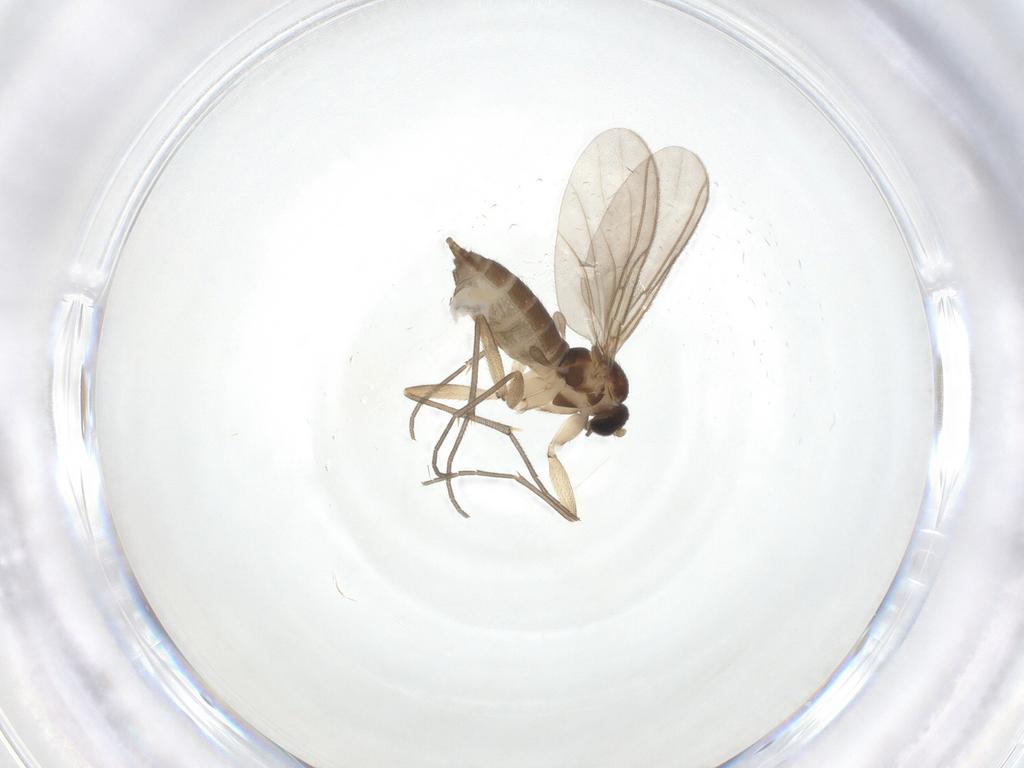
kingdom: Animalia
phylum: Arthropoda
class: Insecta
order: Diptera
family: Sciaridae
